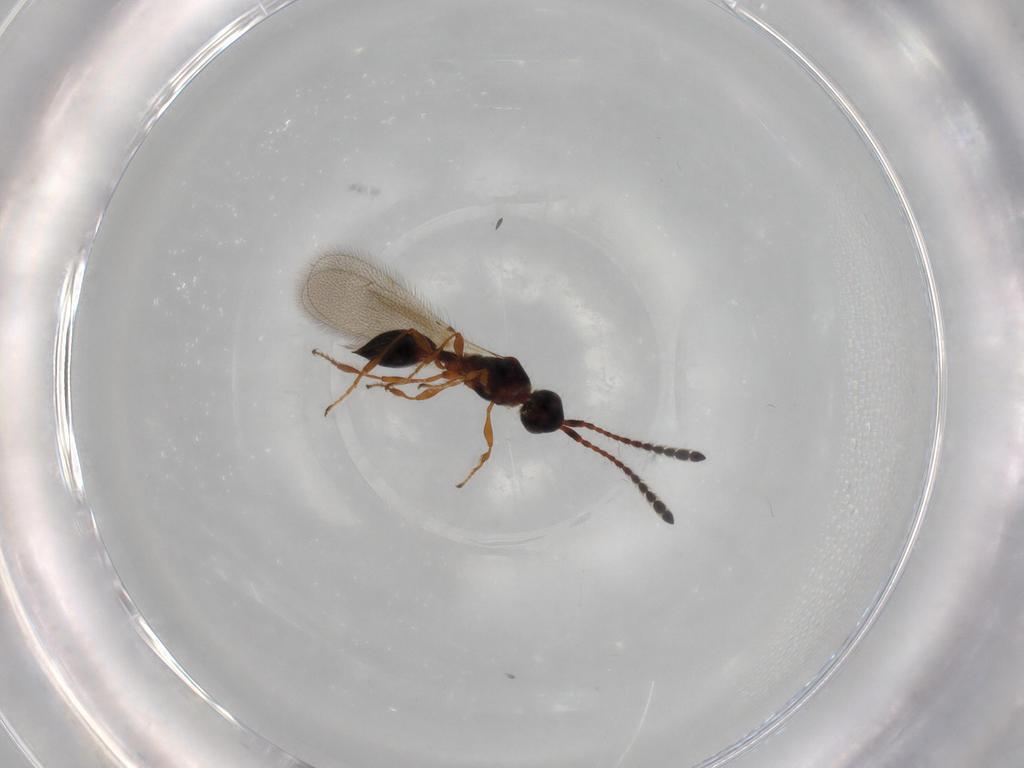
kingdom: Animalia
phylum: Arthropoda
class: Insecta
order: Hymenoptera
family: Diapriidae
